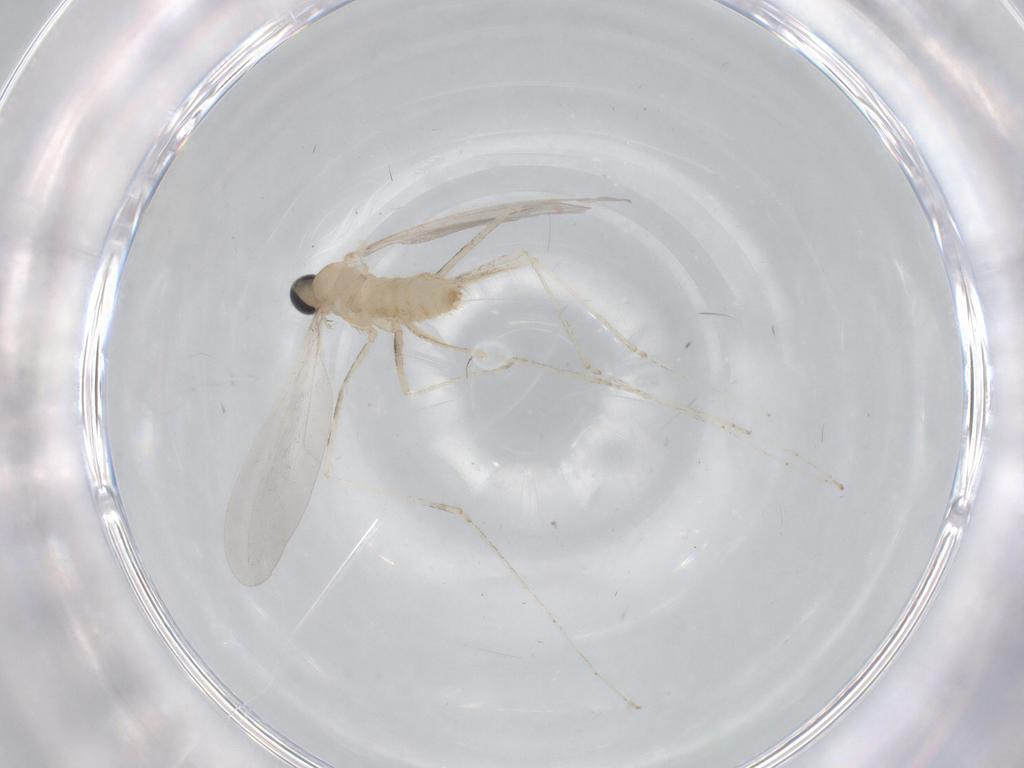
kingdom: Animalia
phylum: Arthropoda
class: Insecta
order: Diptera
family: Cecidomyiidae
